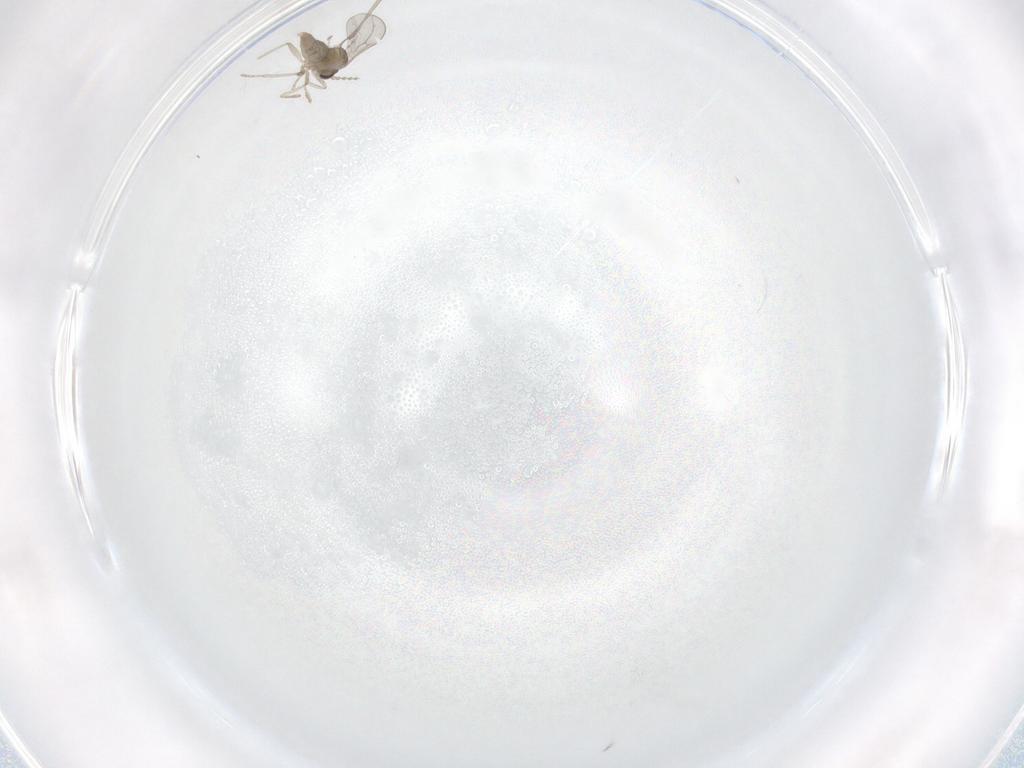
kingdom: Animalia
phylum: Arthropoda
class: Insecta
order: Diptera
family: Cecidomyiidae
